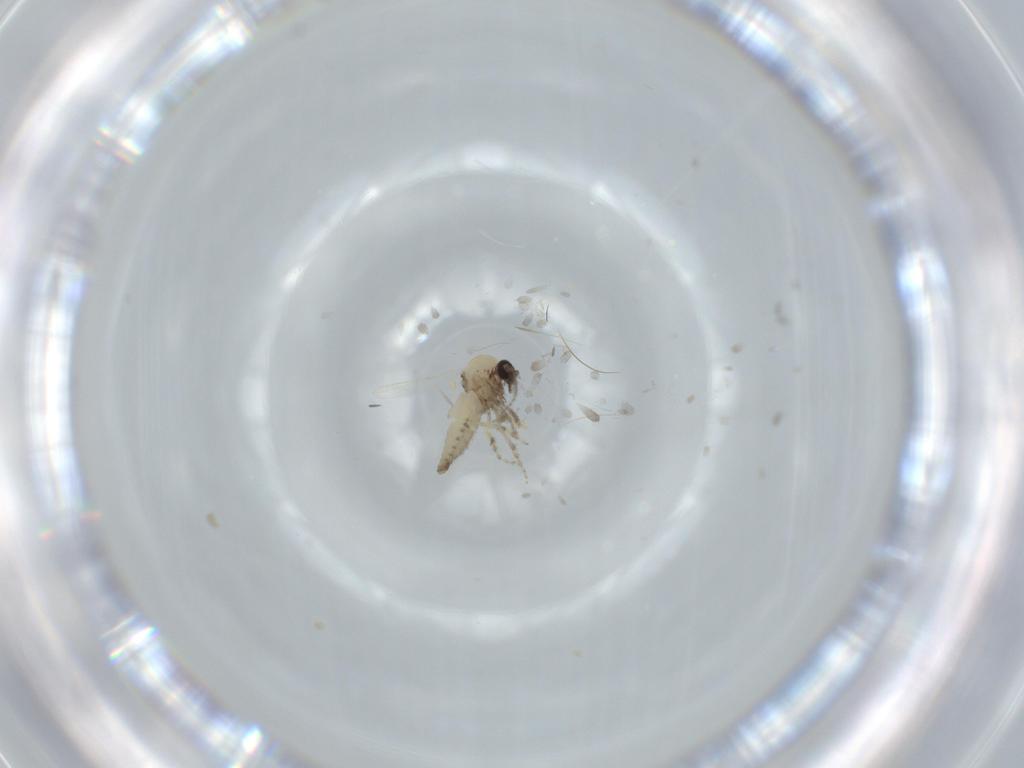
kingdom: Animalia
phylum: Arthropoda
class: Insecta
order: Diptera
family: Ceratopogonidae
